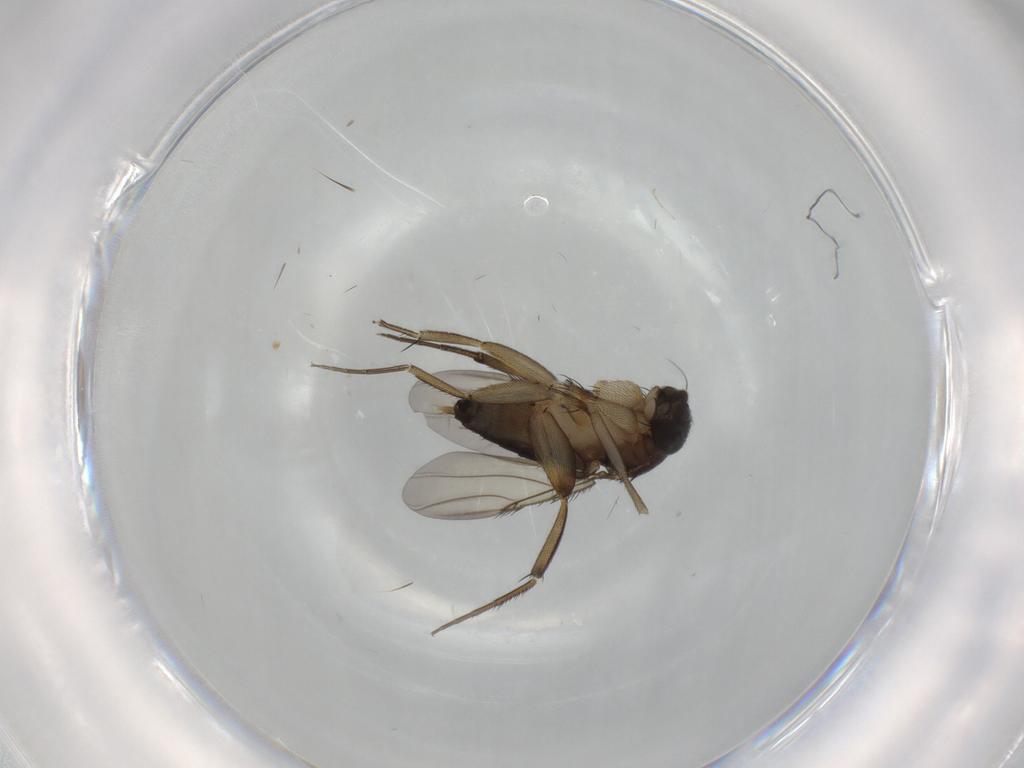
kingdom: Animalia
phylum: Arthropoda
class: Insecta
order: Diptera
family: Phoridae
